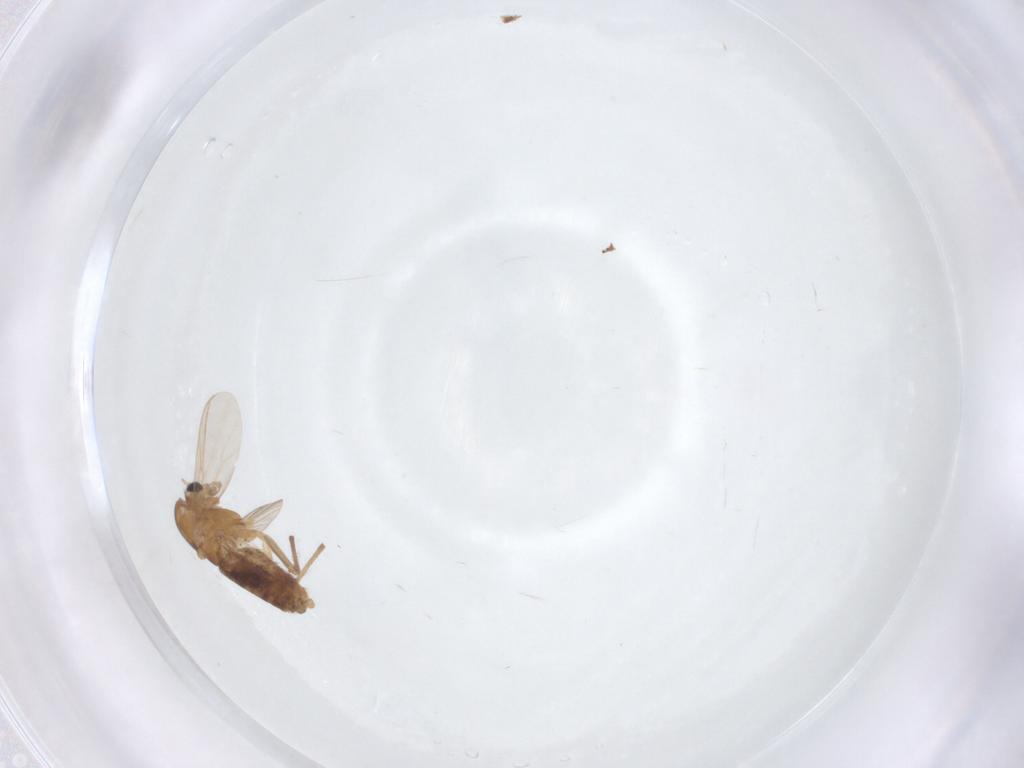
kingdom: Animalia
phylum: Arthropoda
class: Insecta
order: Diptera
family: Chironomidae
